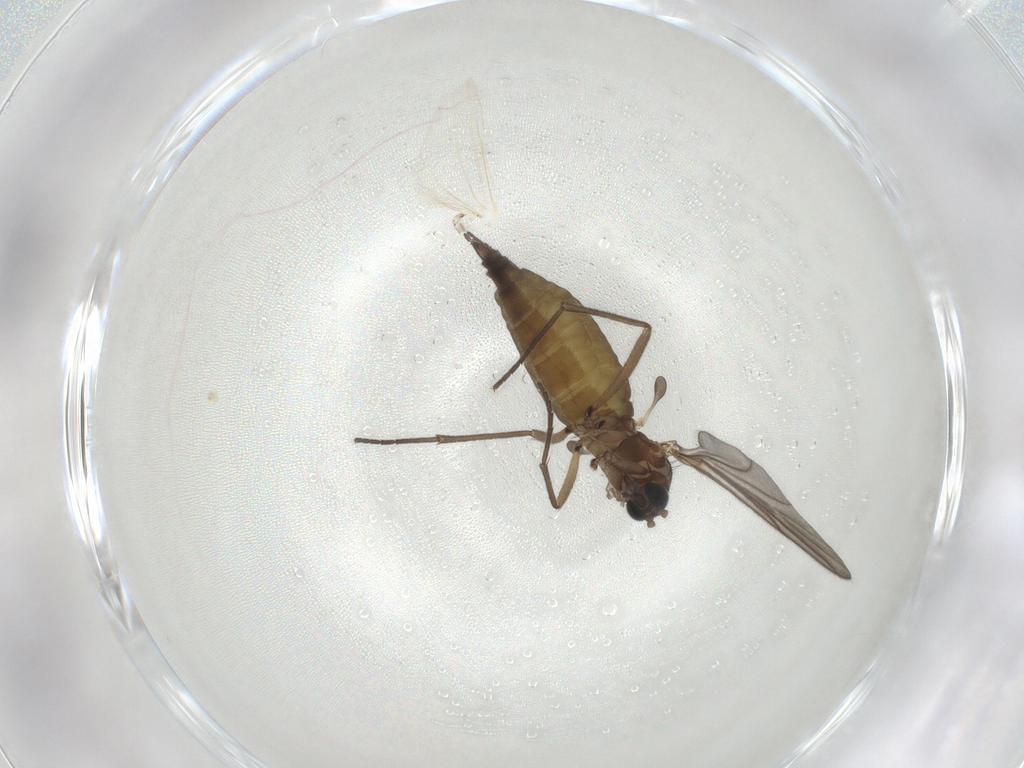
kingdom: Animalia
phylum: Arthropoda
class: Insecta
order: Diptera
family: Sciaridae
